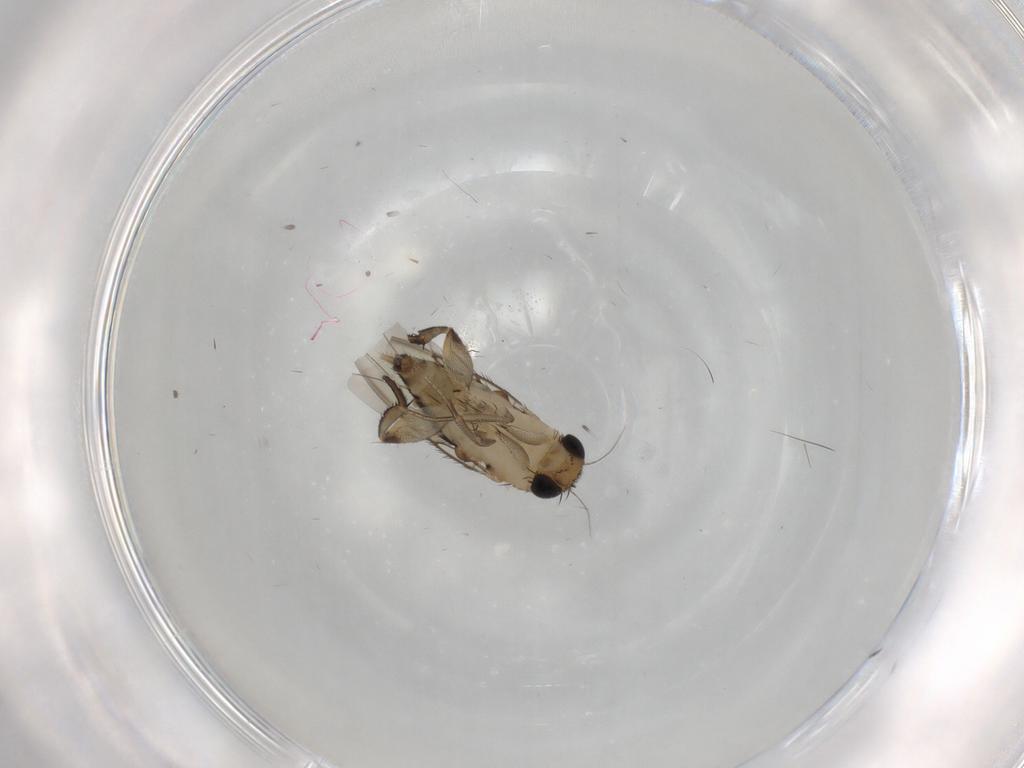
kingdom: Animalia
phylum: Arthropoda
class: Insecta
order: Diptera
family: Phoridae
